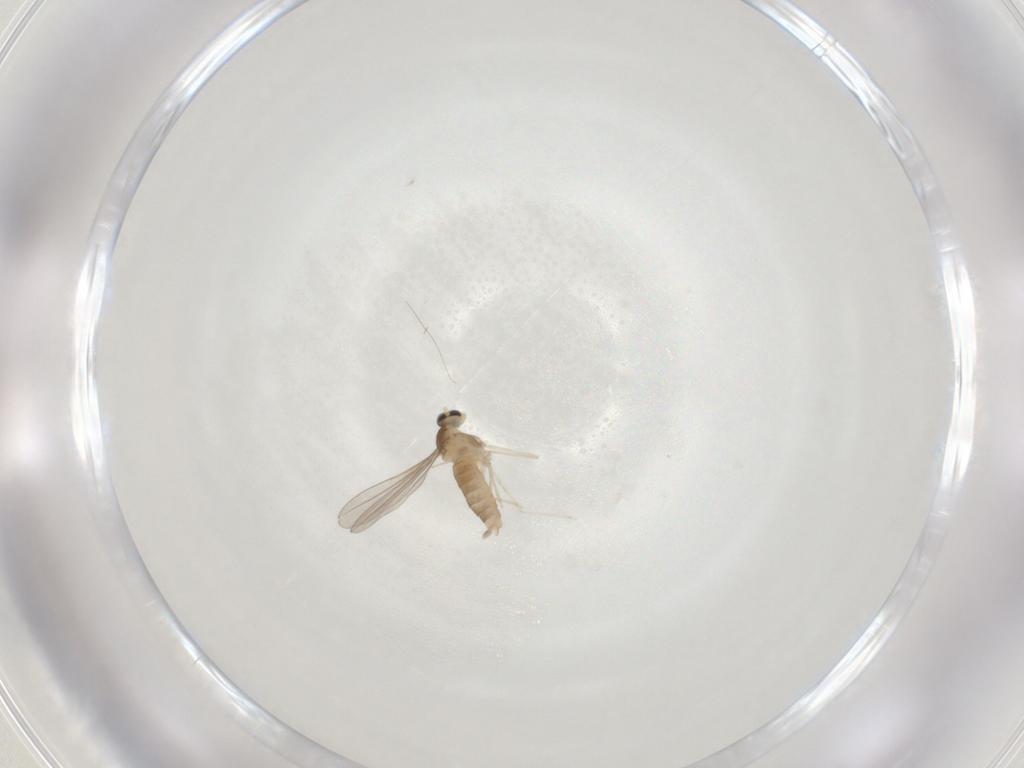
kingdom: Animalia
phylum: Arthropoda
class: Insecta
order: Diptera
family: Cecidomyiidae
